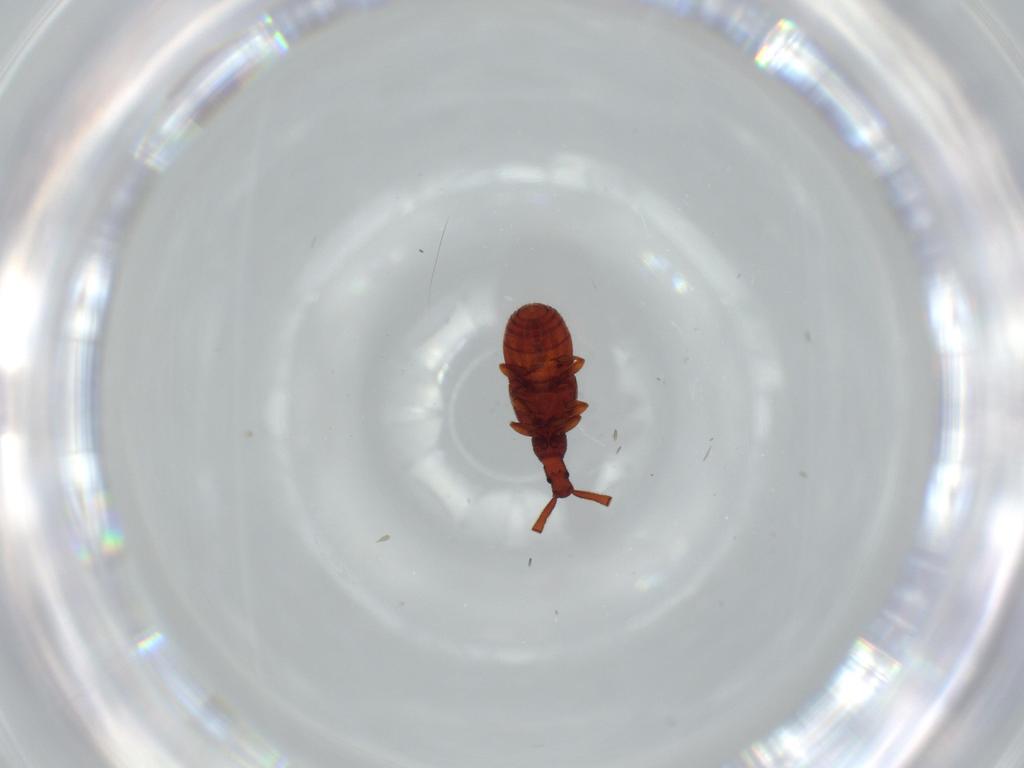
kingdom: Animalia
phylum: Arthropoda
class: Insecta
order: Coleoptera
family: Staphylinidae
